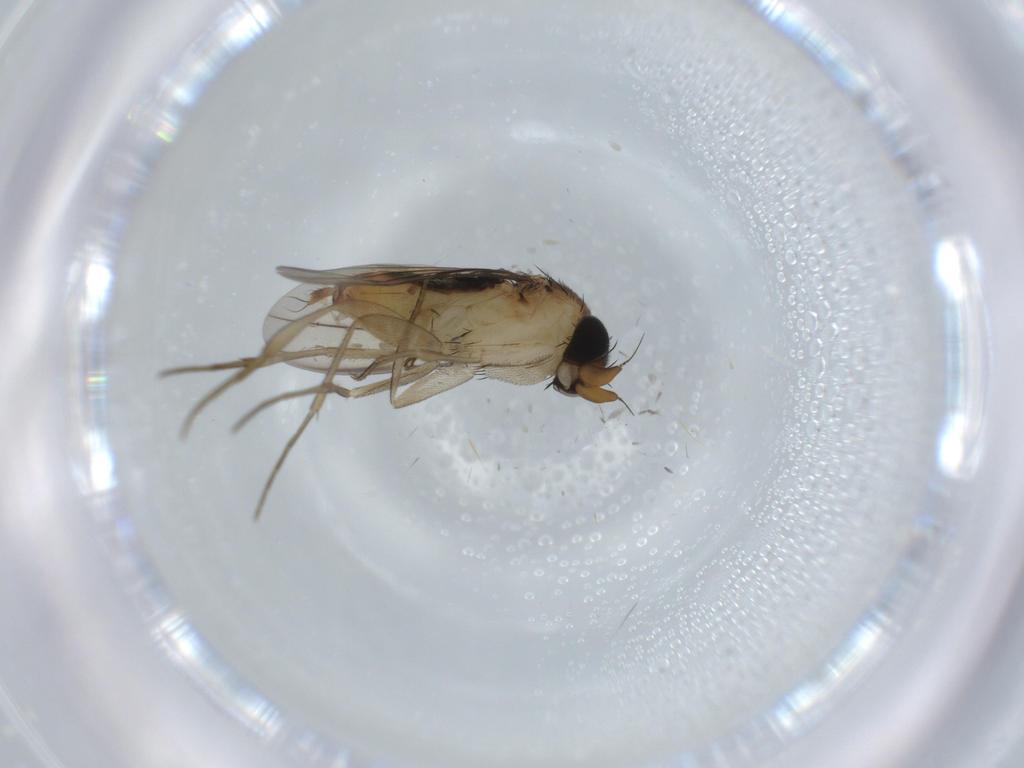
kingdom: Animalia
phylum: Arthropoda
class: Insecta
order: Diptera
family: Phoridae
